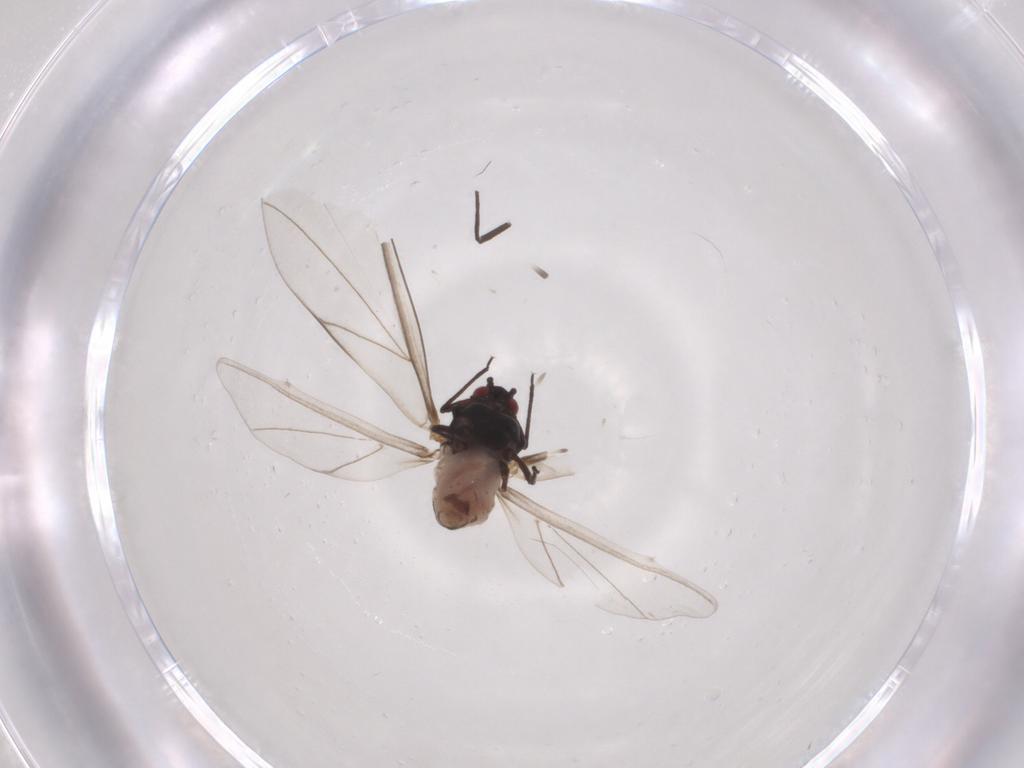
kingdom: Animalia
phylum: Arthropoda
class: Insecta
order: Hemiptera
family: Aphididae
